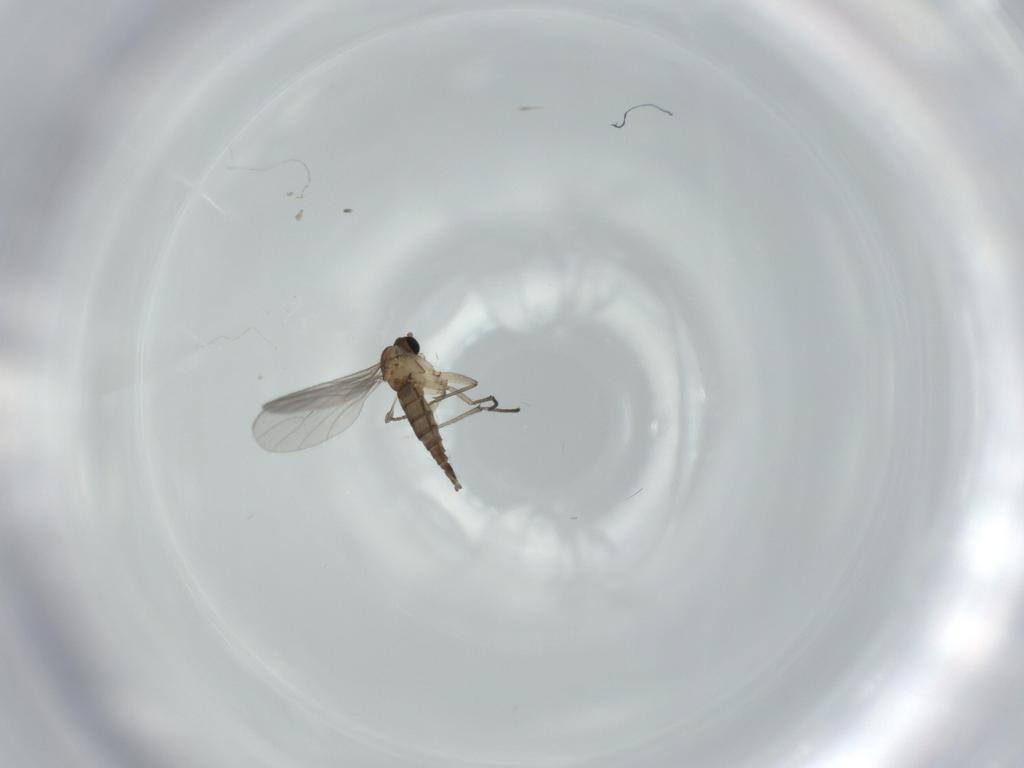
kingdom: Animalia
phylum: Arthropoda
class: Insecta
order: Diptera
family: Sciaridae
